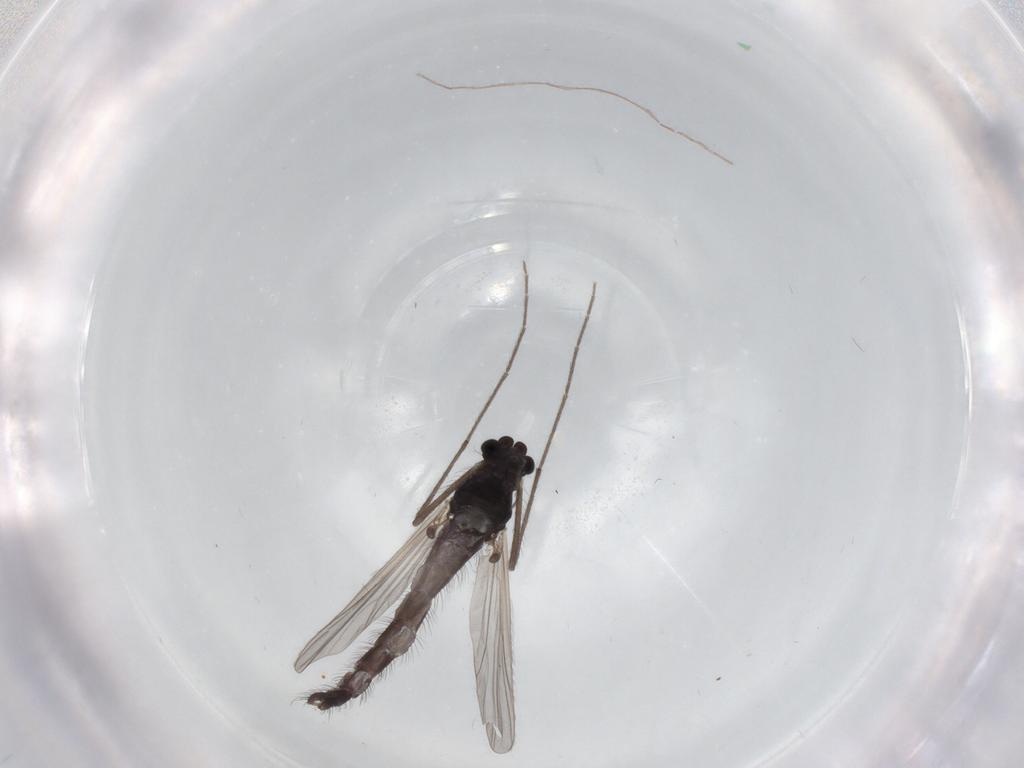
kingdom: Animalia
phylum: Arthropoda
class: Insecta
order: Diptera
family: Chironomidae
